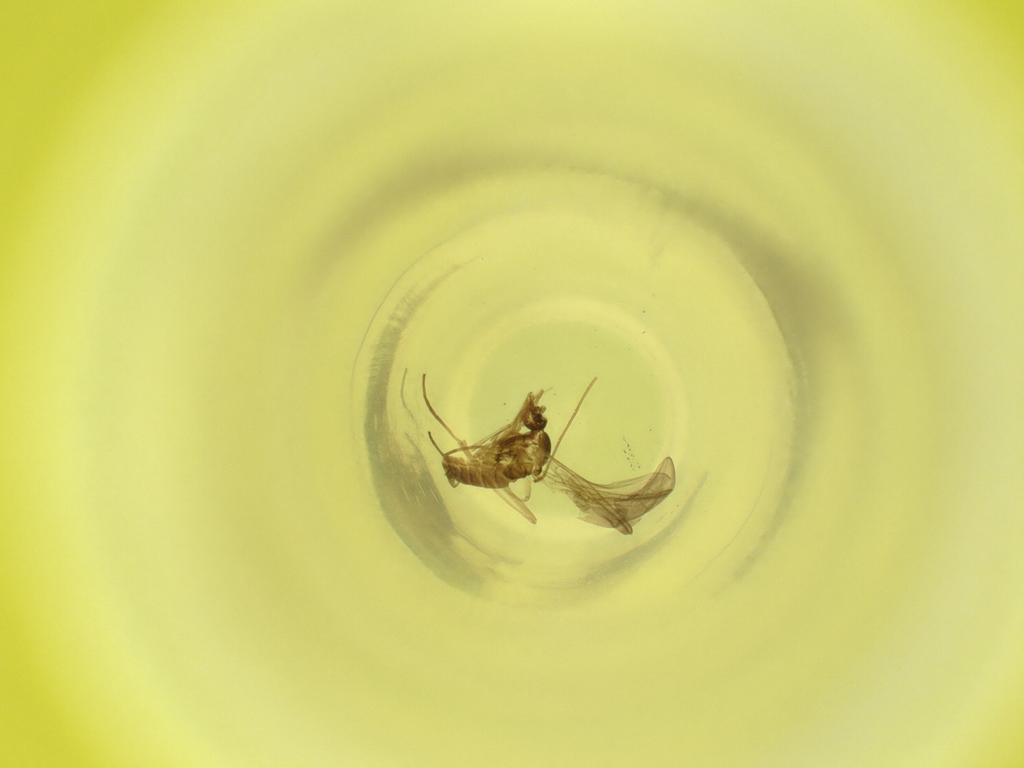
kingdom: Animalia
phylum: Arthropoda
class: Insecta
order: Diptera
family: Cecidomyiidae
